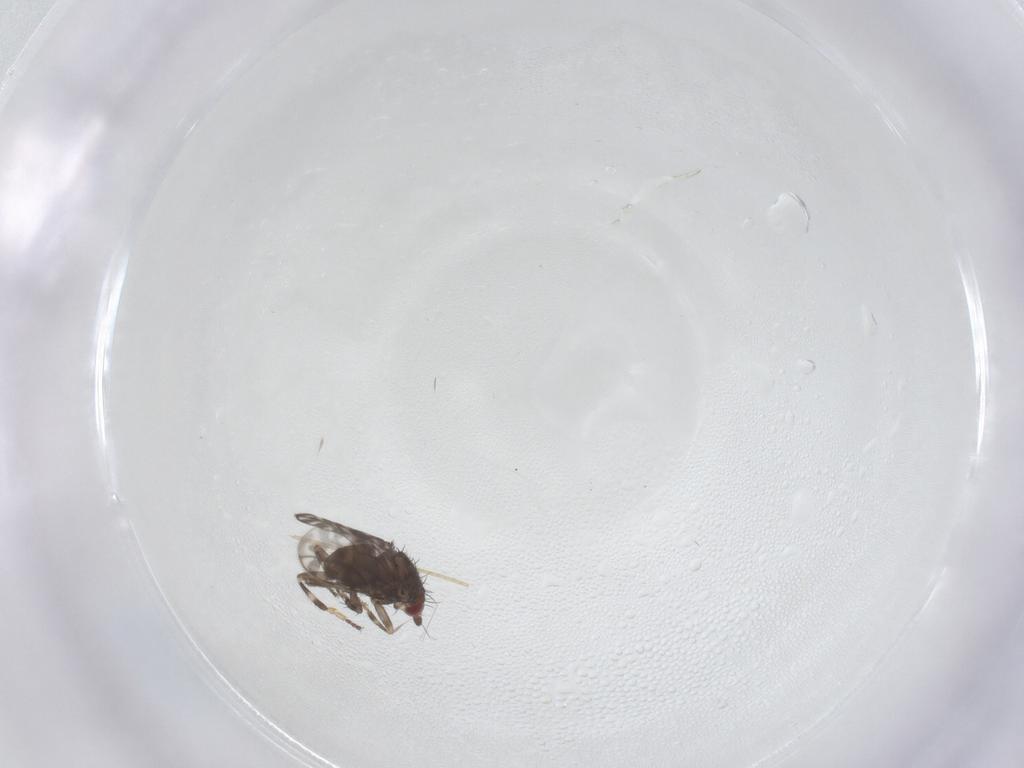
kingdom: Animalia
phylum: Arthropoda
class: Insecta
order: Diptera
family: Sphaeroceridae
